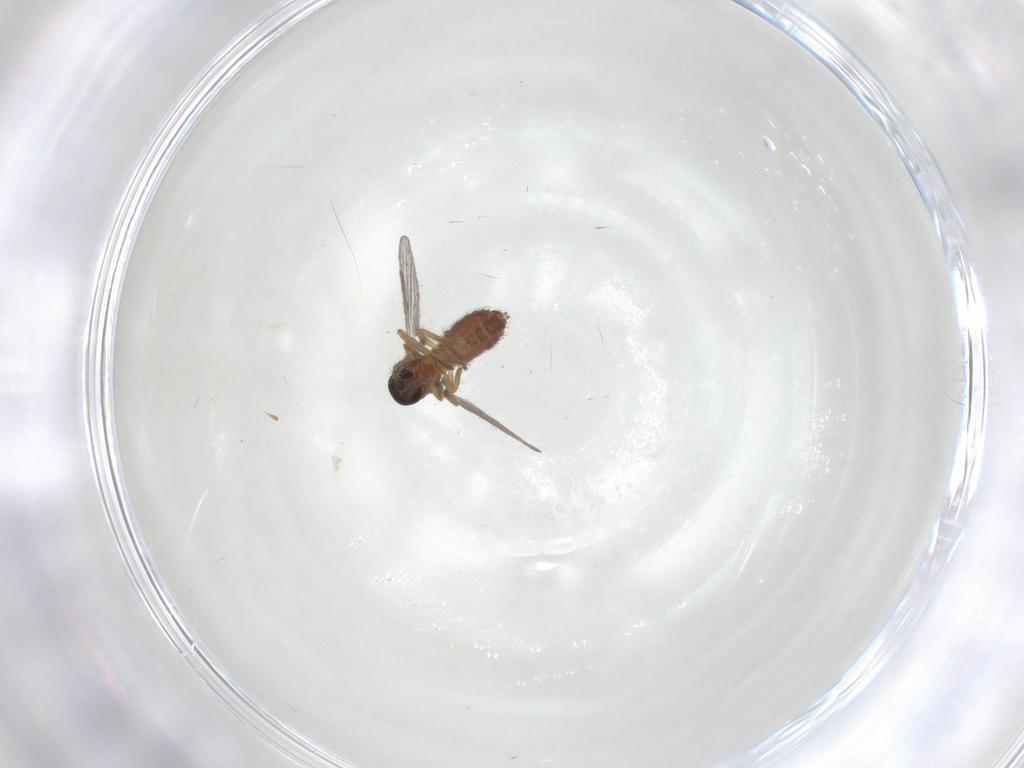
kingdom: Animalia
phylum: Arthropoda
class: Insecta
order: Diptera
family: Ceratopogonidae
